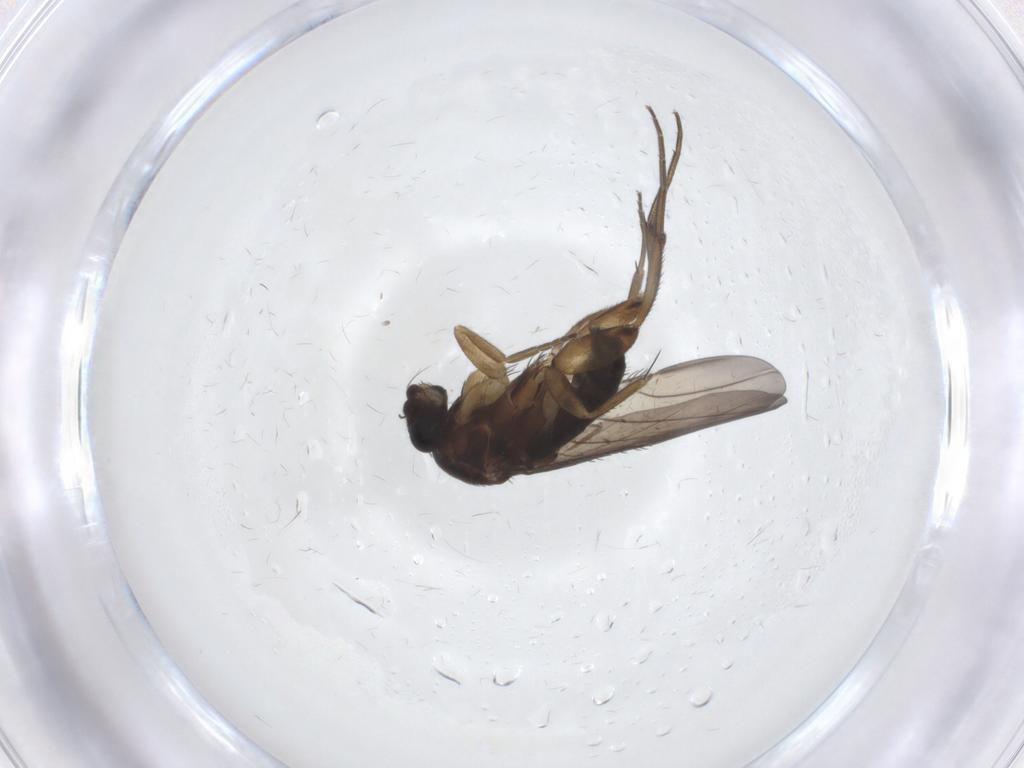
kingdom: Animalia
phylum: Arthropoda
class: Insecta
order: Diptera
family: Phoridae
